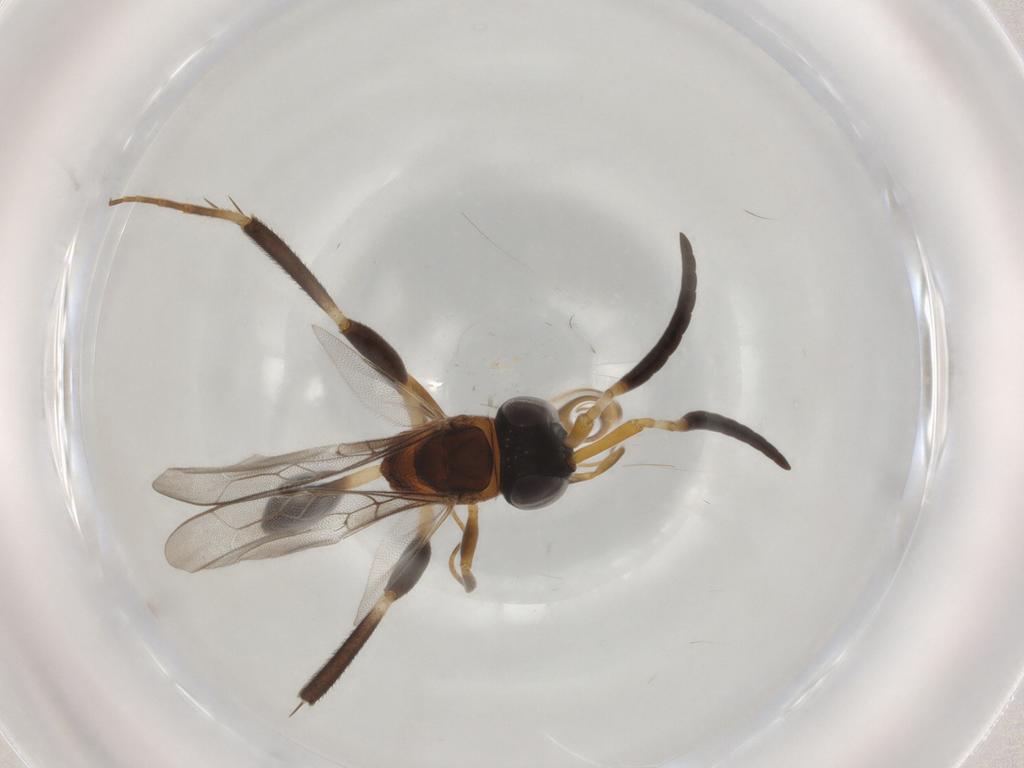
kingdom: Animalia
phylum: Arthropoda
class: Insecta
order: Hymenoptera
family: Evaniidae
